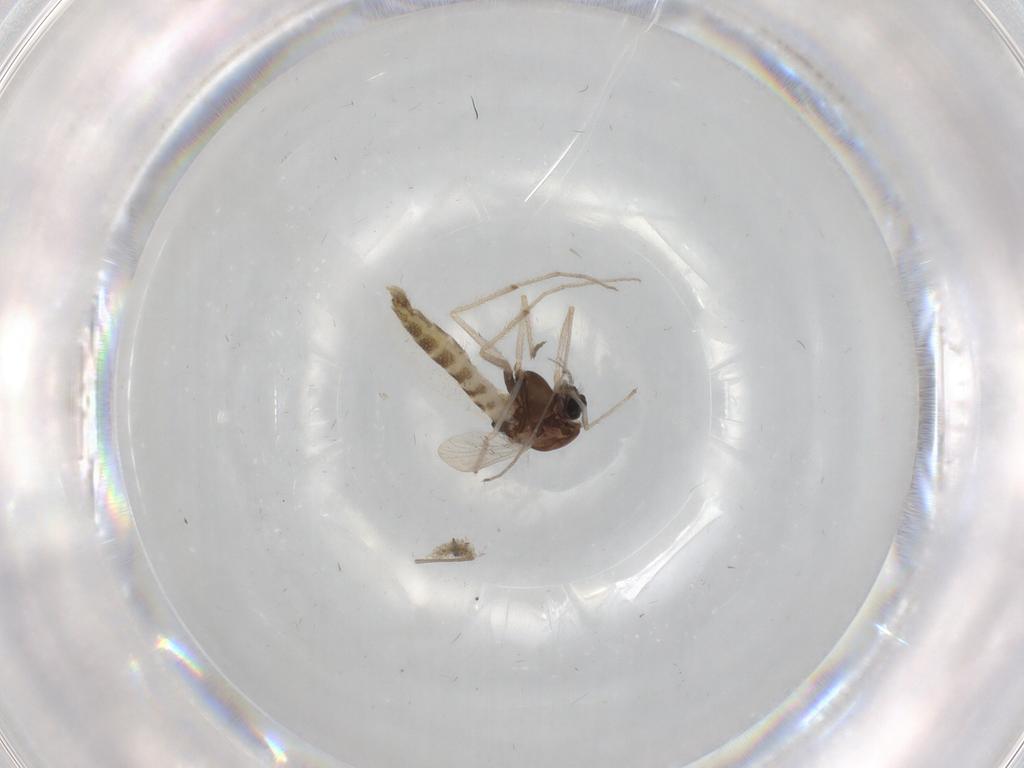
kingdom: Animalia
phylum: Arthropoda
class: Insecta
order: Diptera
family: Chironomidae
